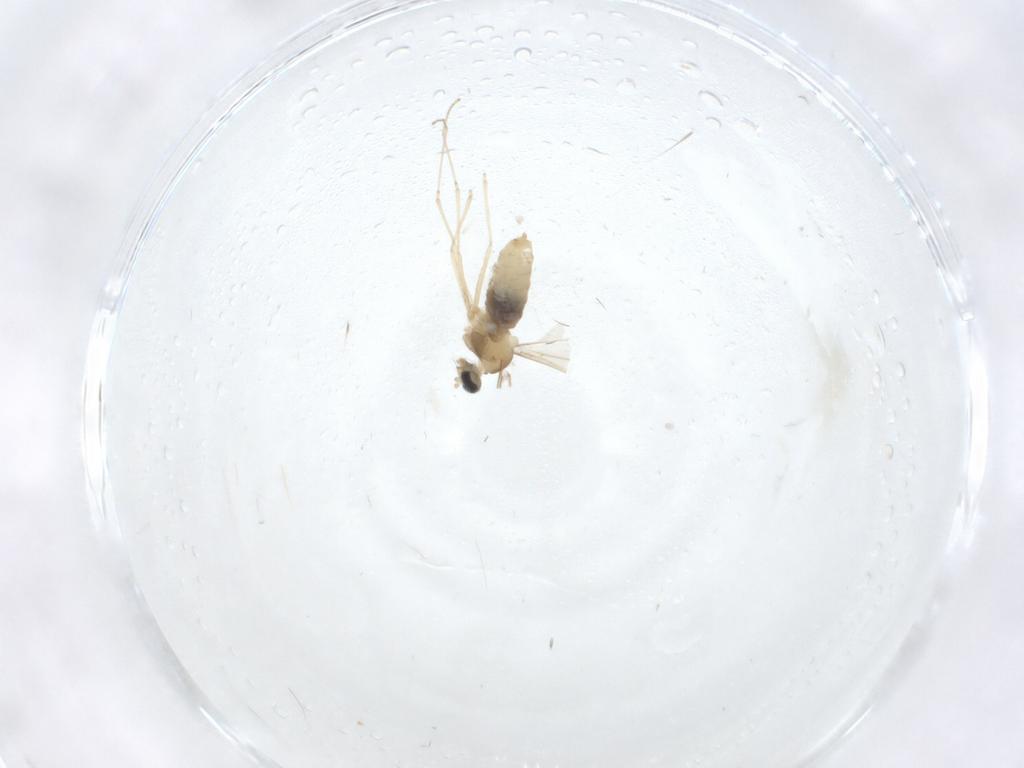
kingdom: Animalia
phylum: Arthropoda
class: Insecta
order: Diptera
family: Cecidomyiidae
